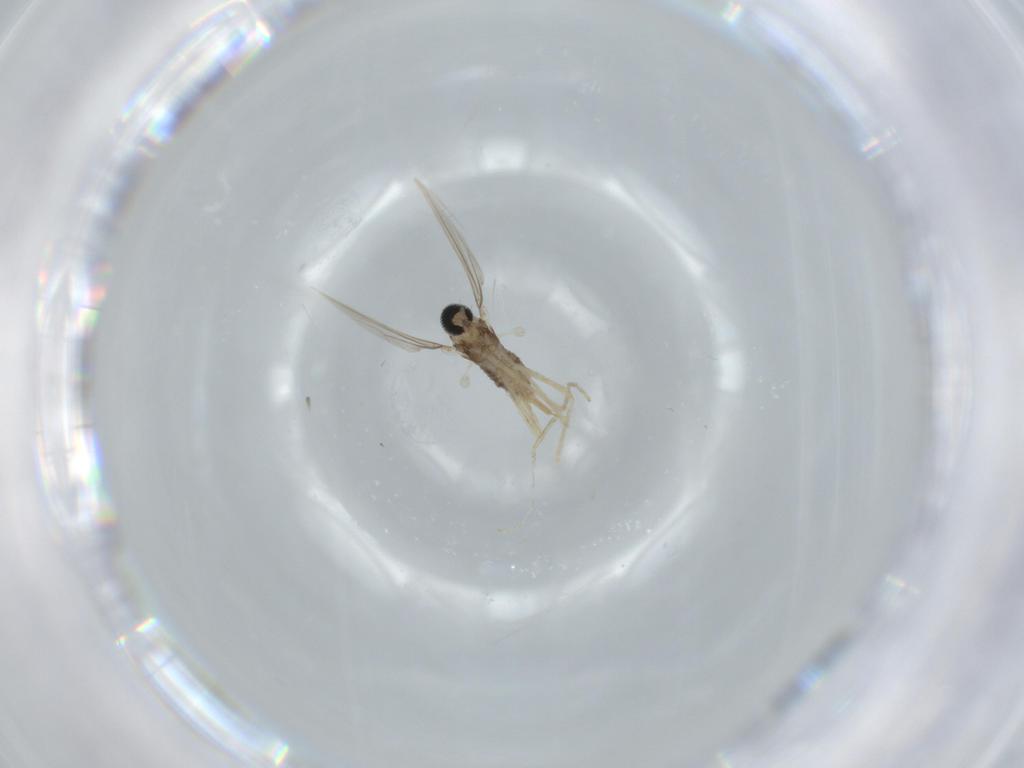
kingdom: Animalia
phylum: Arthropoda
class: Insecta
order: Diptera
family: Cecidomyiidae
